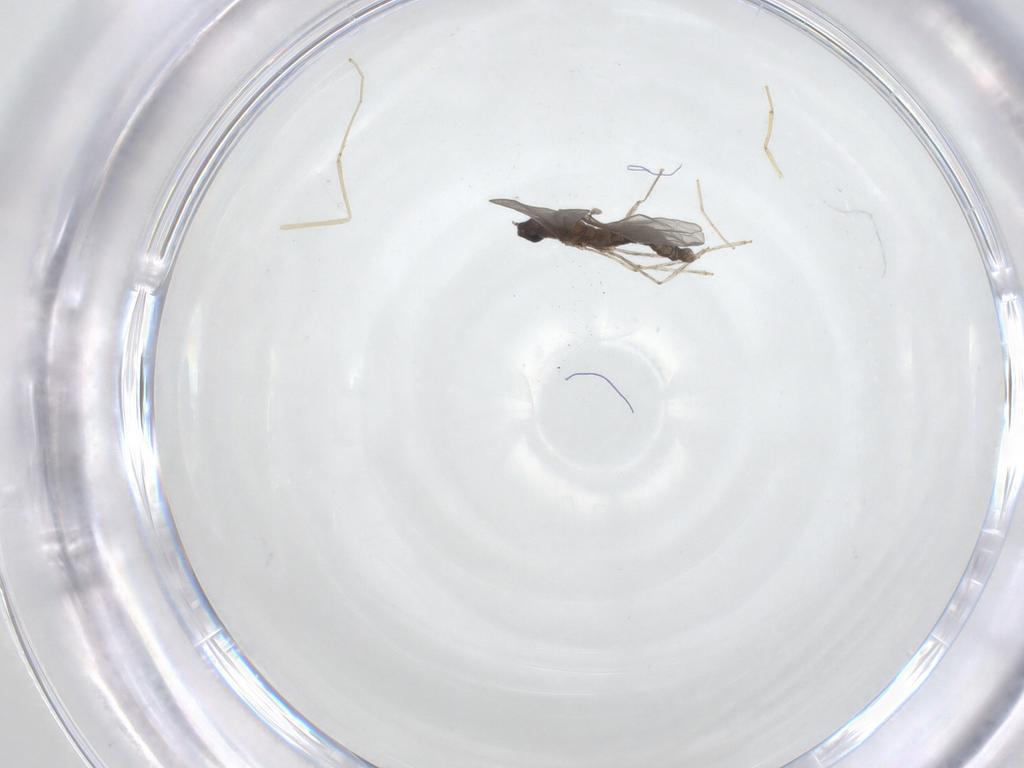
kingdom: Animalia
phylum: Arthropoda
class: Insecta
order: Diptera
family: Cecidomyiidae
